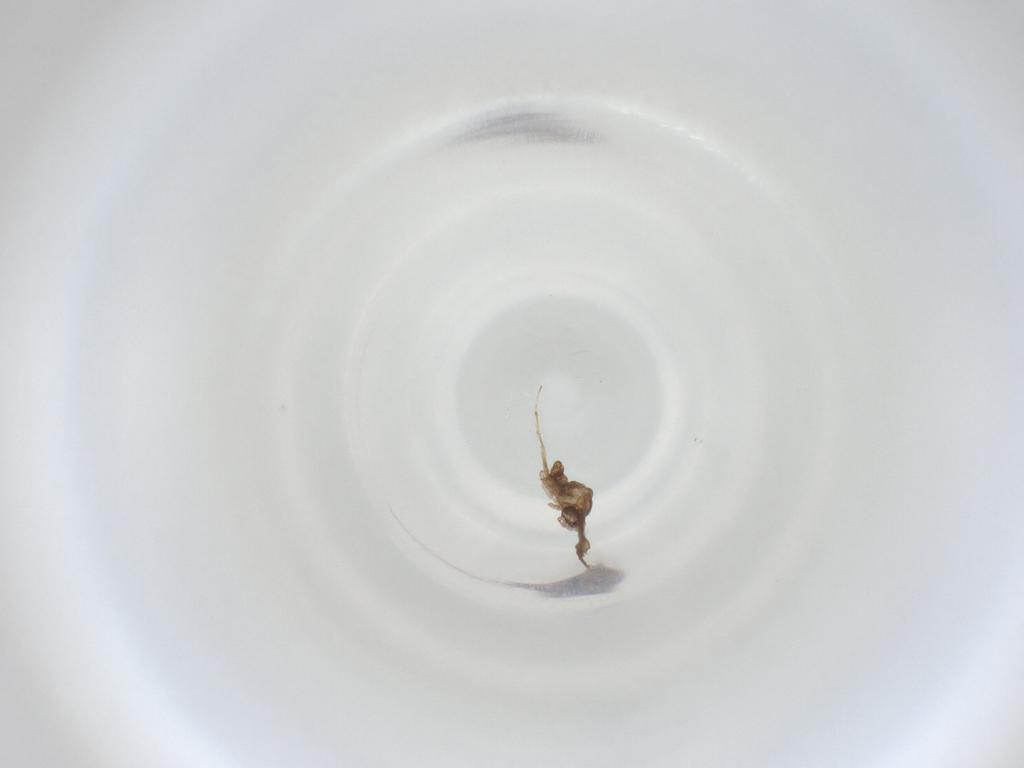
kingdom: Animalia
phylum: Arthropoda
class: Insecta
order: Diptera
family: Cecidomyiidae
